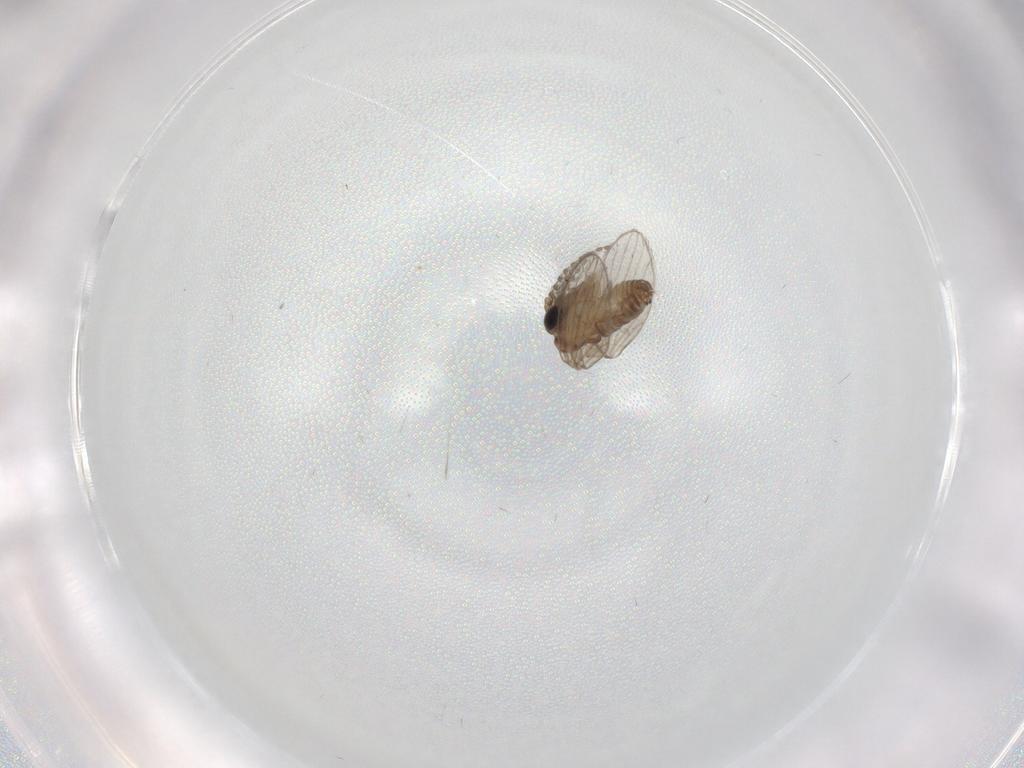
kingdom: Animalia
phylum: Arthropoda
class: Insecta
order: Diptera
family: Psychodidae
